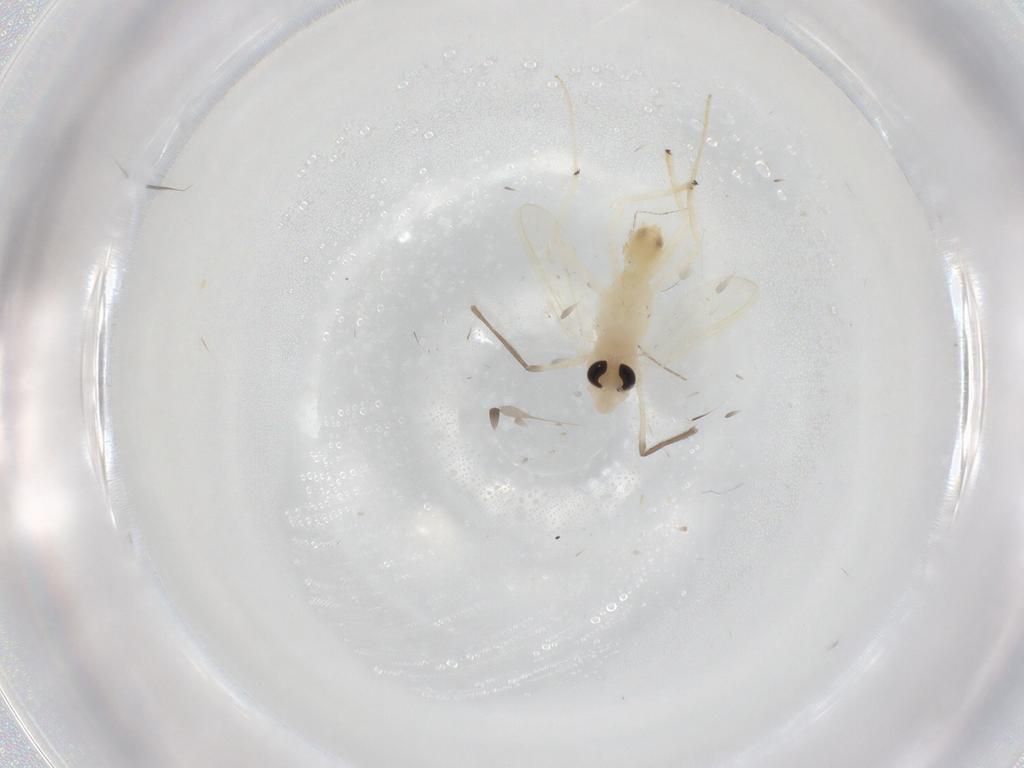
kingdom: Animalia
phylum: Arthropoda
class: Insecta
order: Diptera
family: Chironomidae
